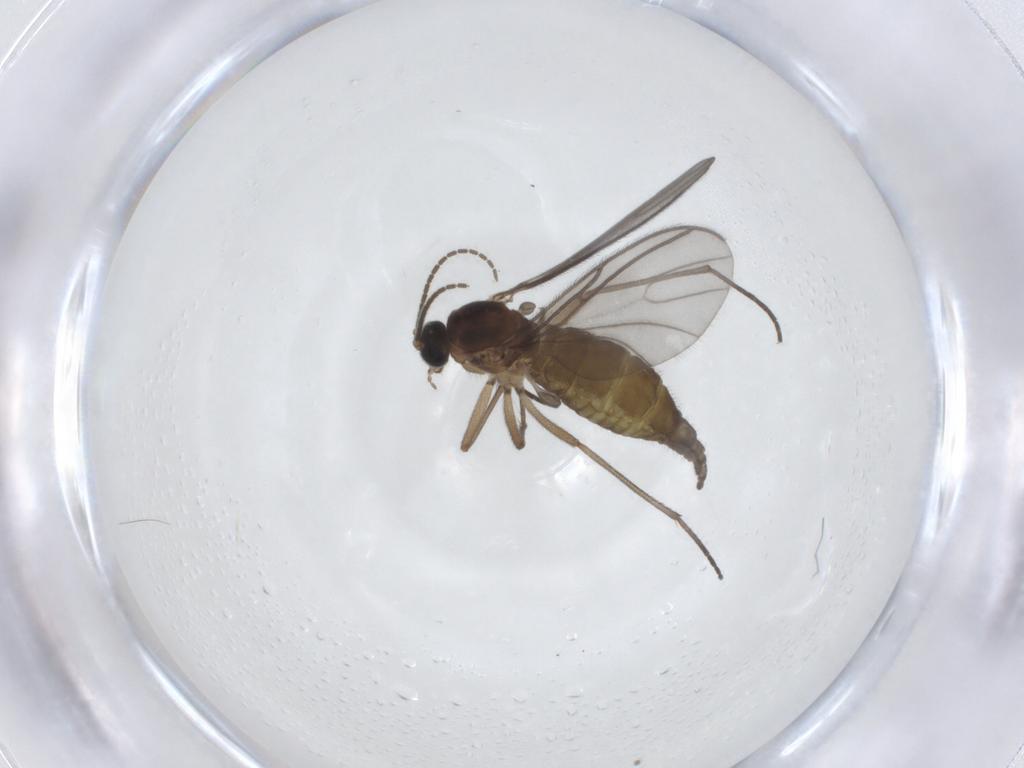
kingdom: Animalia
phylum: Arthropoda
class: Insecta
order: Diptera
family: Sciaridae
